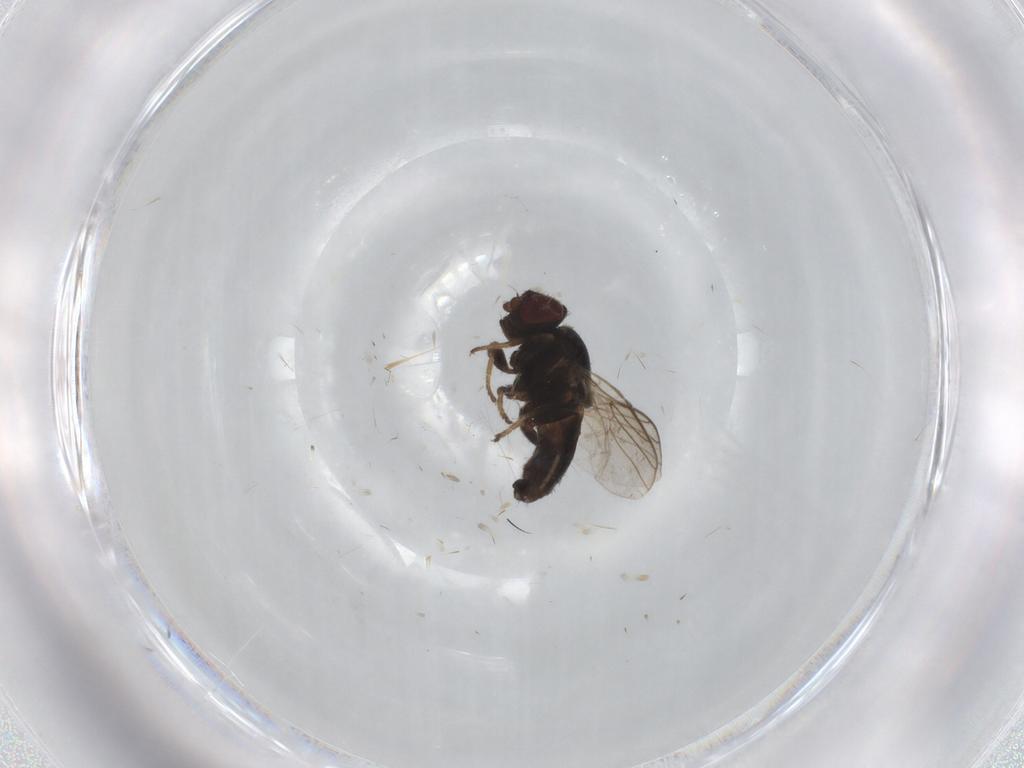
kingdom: Animalia
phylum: Arthropoda
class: Insecta
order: Diptera
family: Chloropidae
